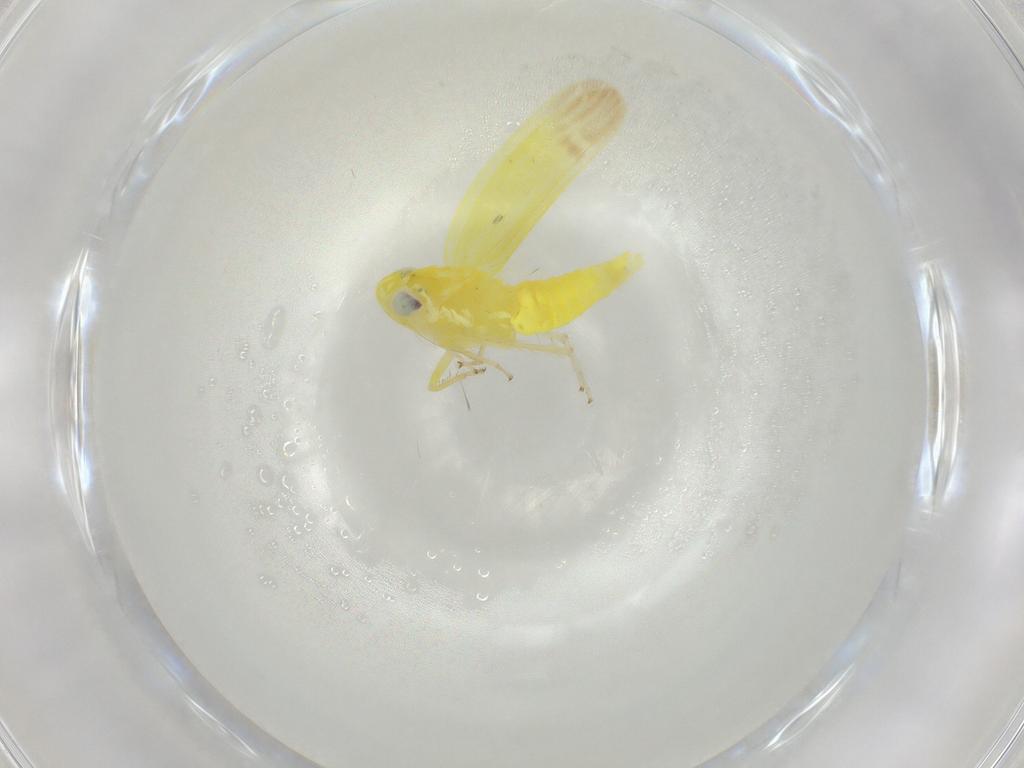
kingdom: Animalia
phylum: Arthropoda
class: Insecta
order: Hemiptera
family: Cicadellidae
